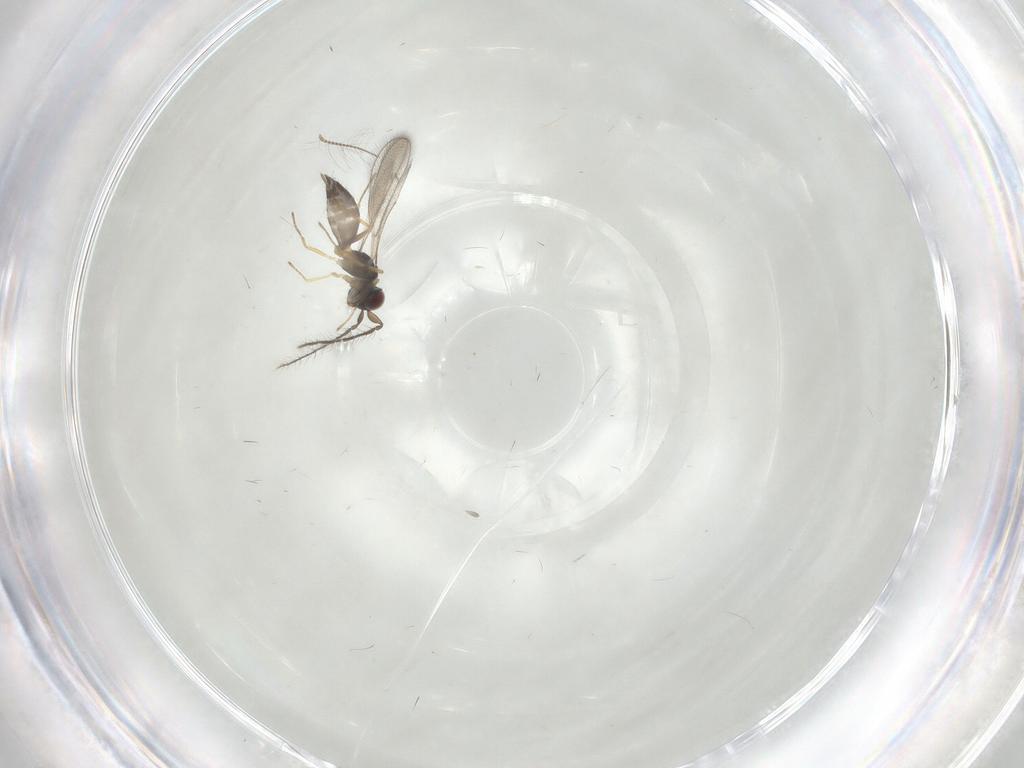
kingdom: Animalia
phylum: Arthropoda
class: Insecta
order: Hymenoptera
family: Eulophidae
